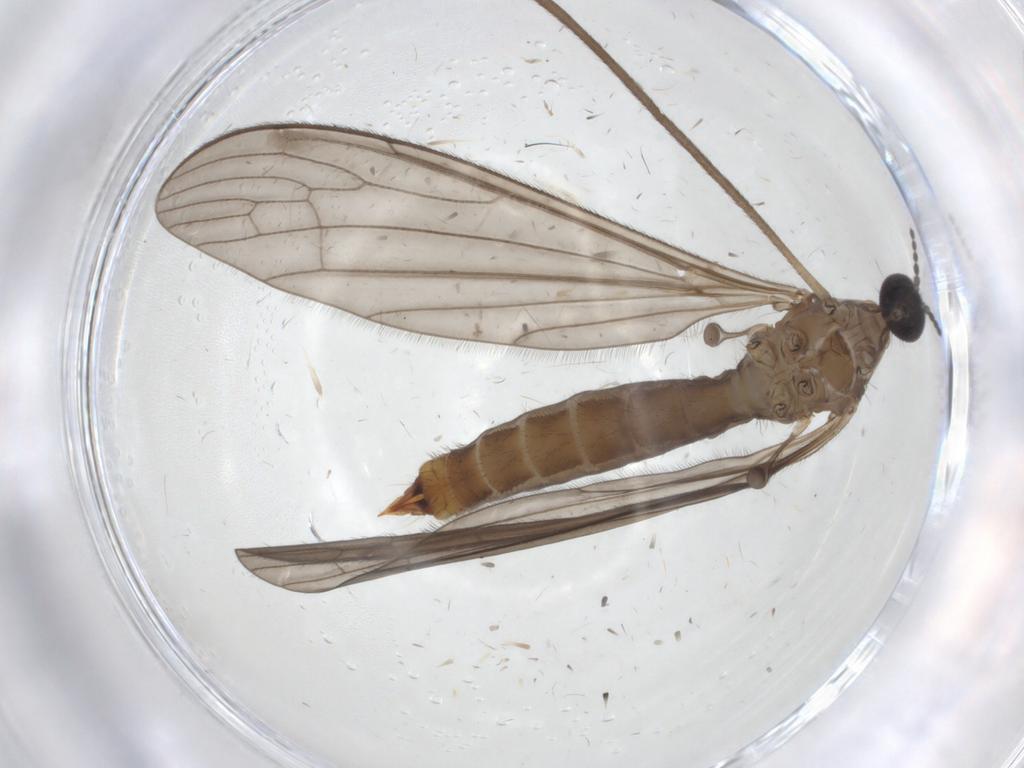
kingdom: Animalia
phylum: Arthropoda
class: Insecta
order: Diptera
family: Limoniidae
